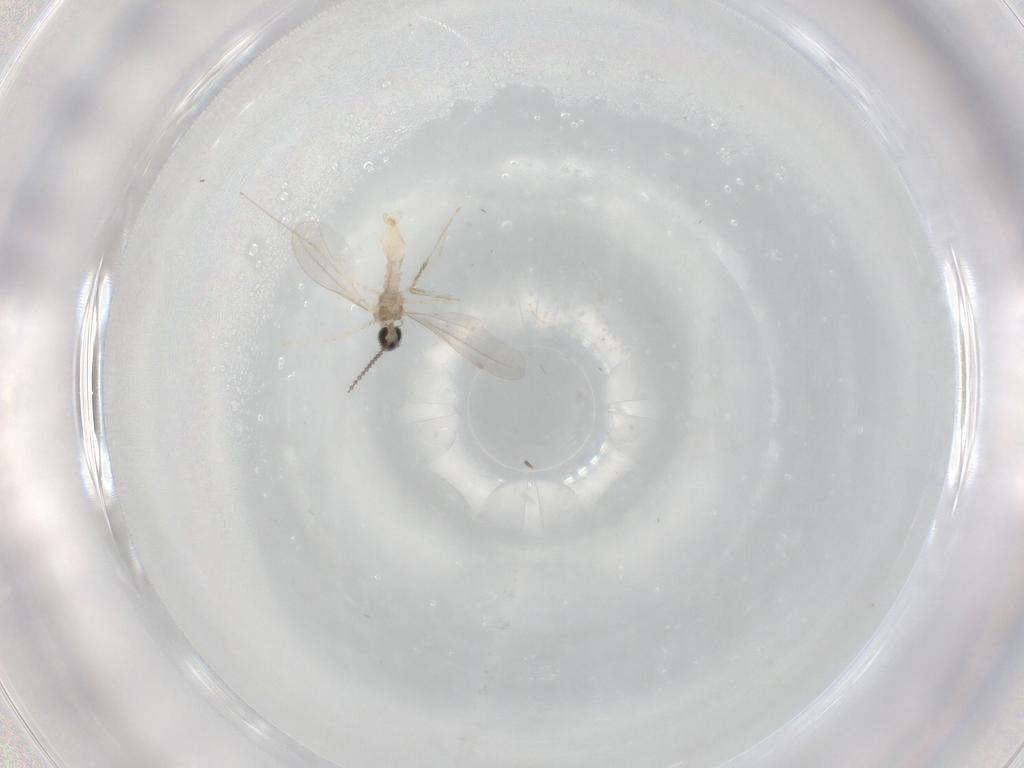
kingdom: Animalia
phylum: Arthropoda
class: Insecta
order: Diptera
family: Cecidomyiidae
